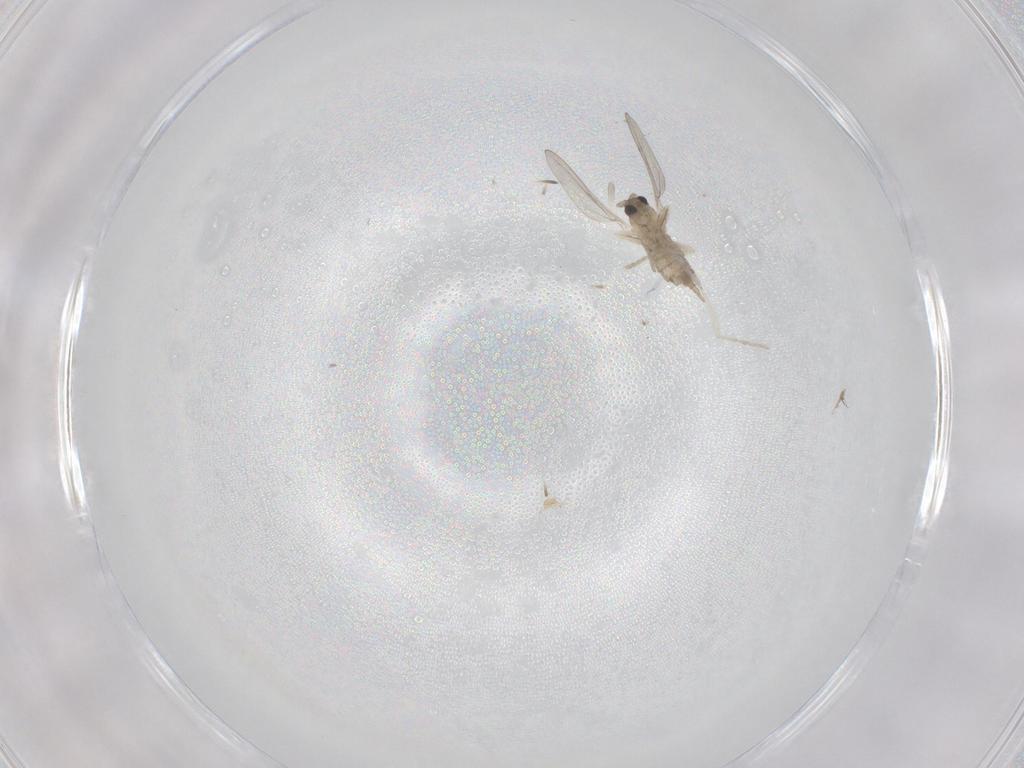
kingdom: Animalia
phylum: Arthropoda
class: Insecta
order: Diptera
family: Cecidomyiidae
